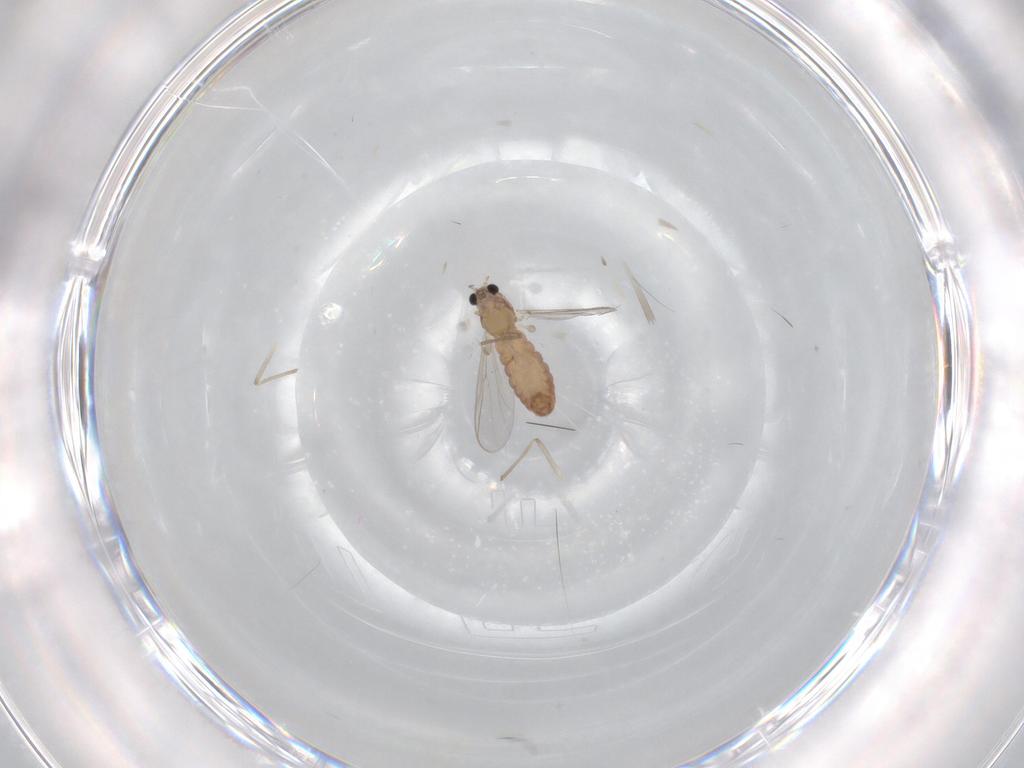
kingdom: Animalia
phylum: Arthropoda
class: Insecta
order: Diptera
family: Chironomidae
